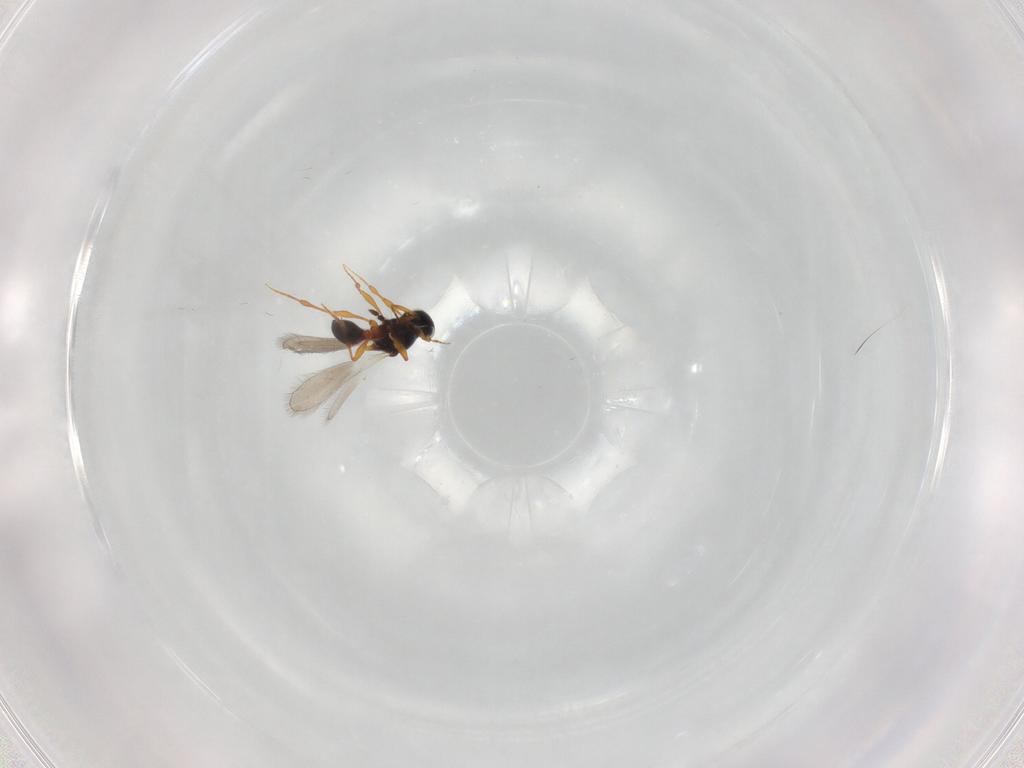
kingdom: Animalia
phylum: Arthropoda
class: Insecta
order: Hymenoptera
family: Platygastridae
